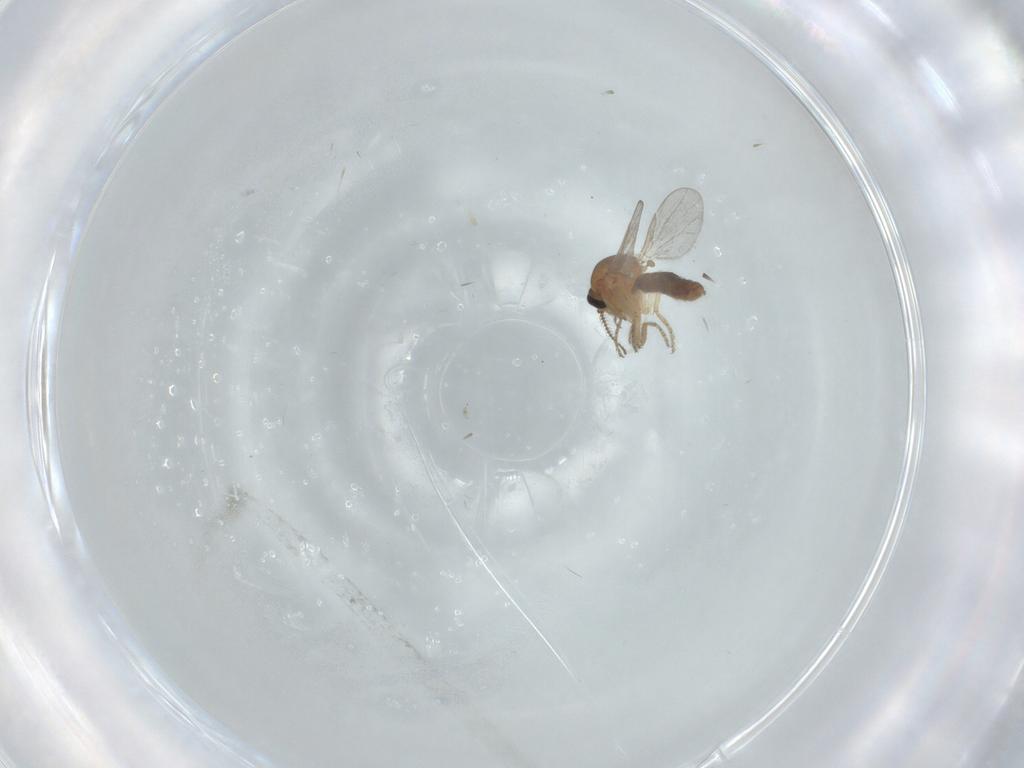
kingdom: Animalia
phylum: Arthropoda
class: Insecta
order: Diptera
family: Ceratopogonidae
